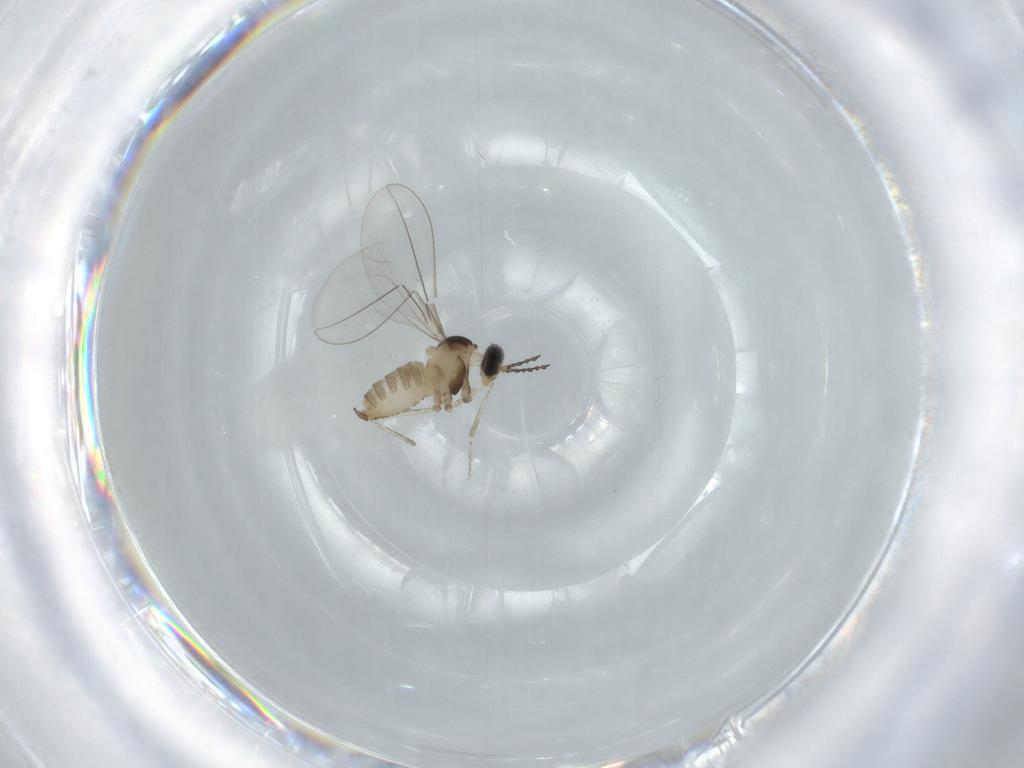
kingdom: Animalia
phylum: Arthropoda
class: Insecta
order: Diptera
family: Cecidomyiidae
